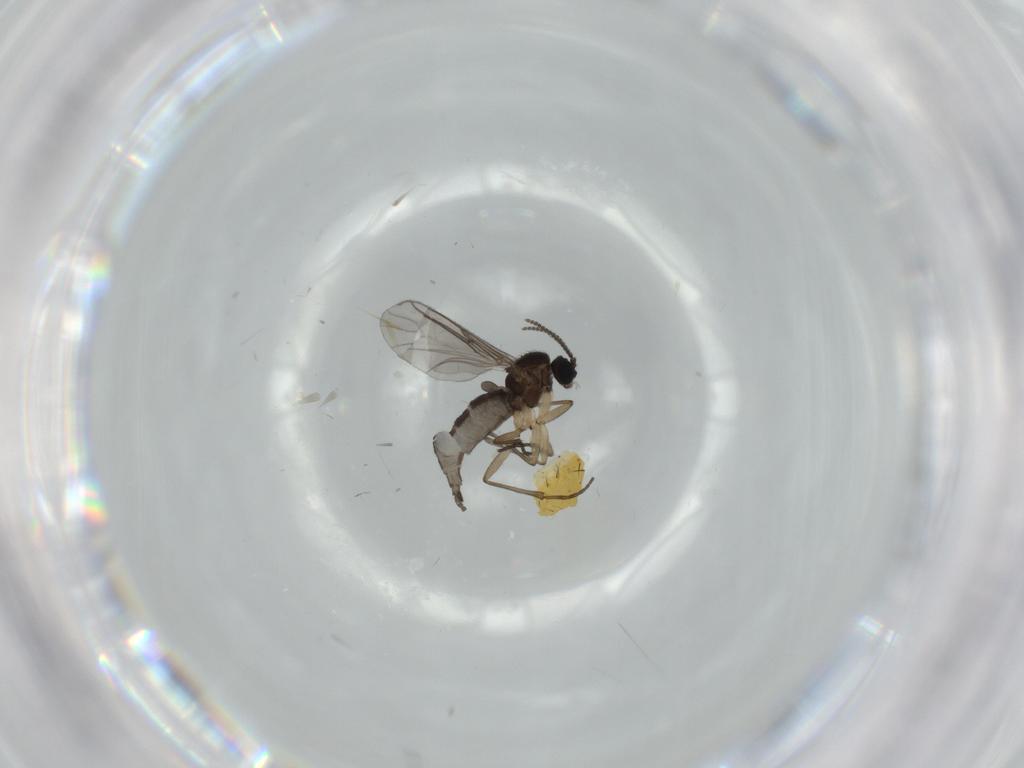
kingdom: Animalia
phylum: Arthropoda
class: Insecta
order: Diptera
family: Sciaridae
